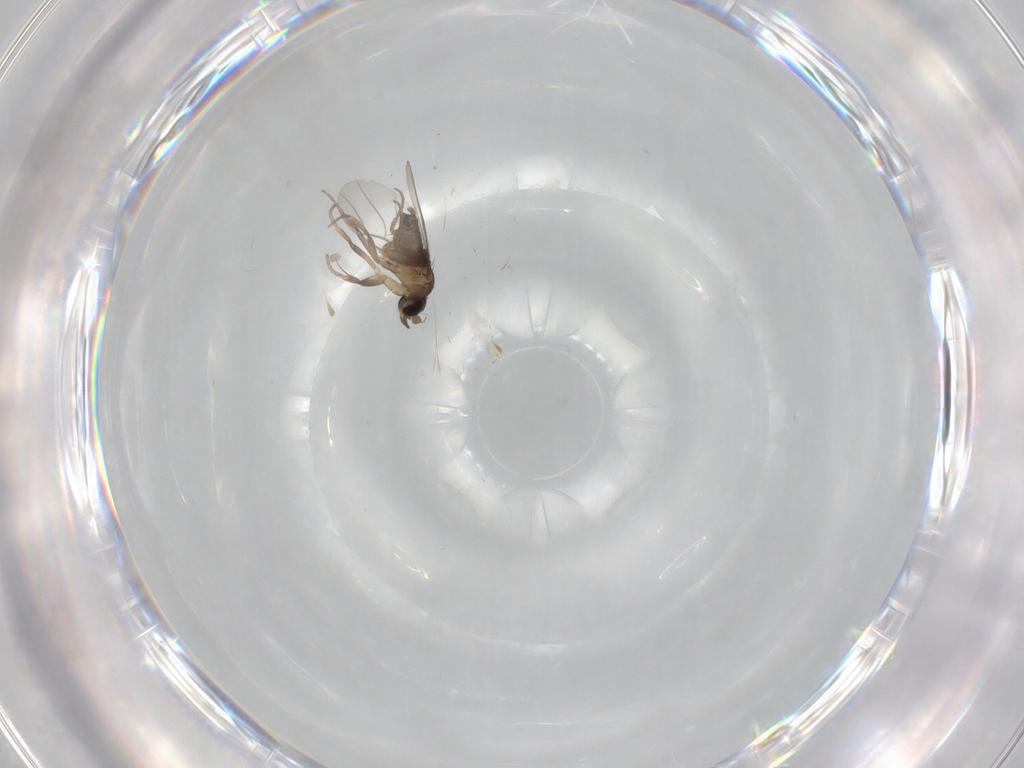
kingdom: Animalia
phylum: Arthropoda
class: Insecta
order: Diptera
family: Phoridae
